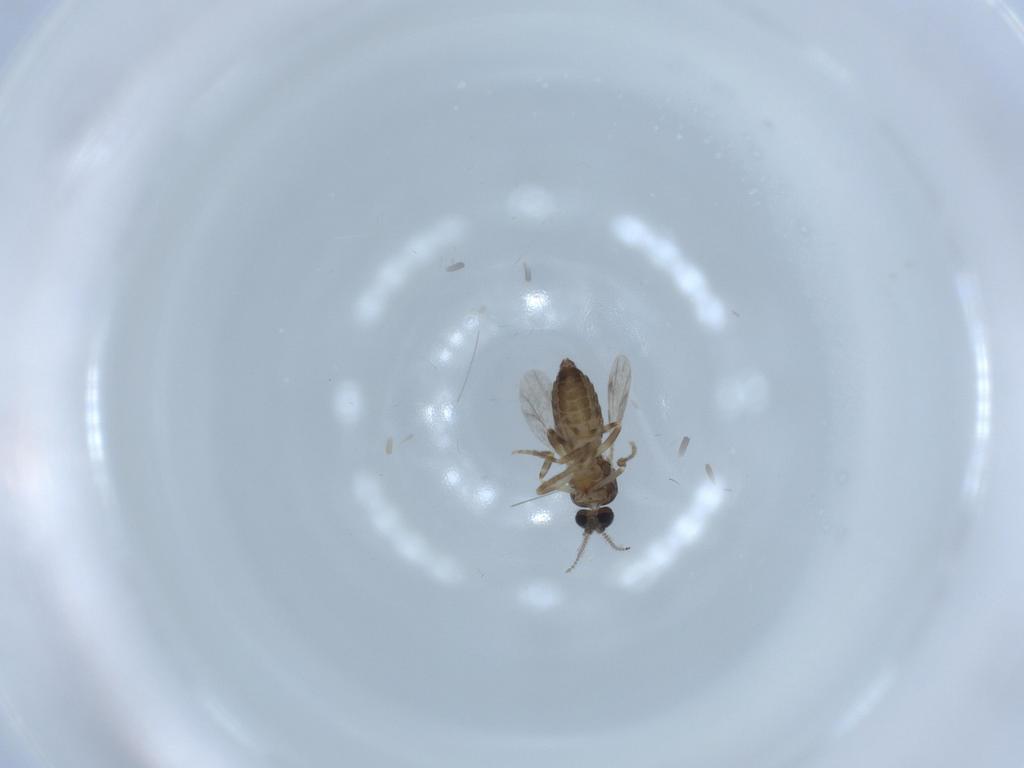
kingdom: Animalia
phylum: Arthropoda
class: Insecta
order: Diptera
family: Ceratopogonidae
